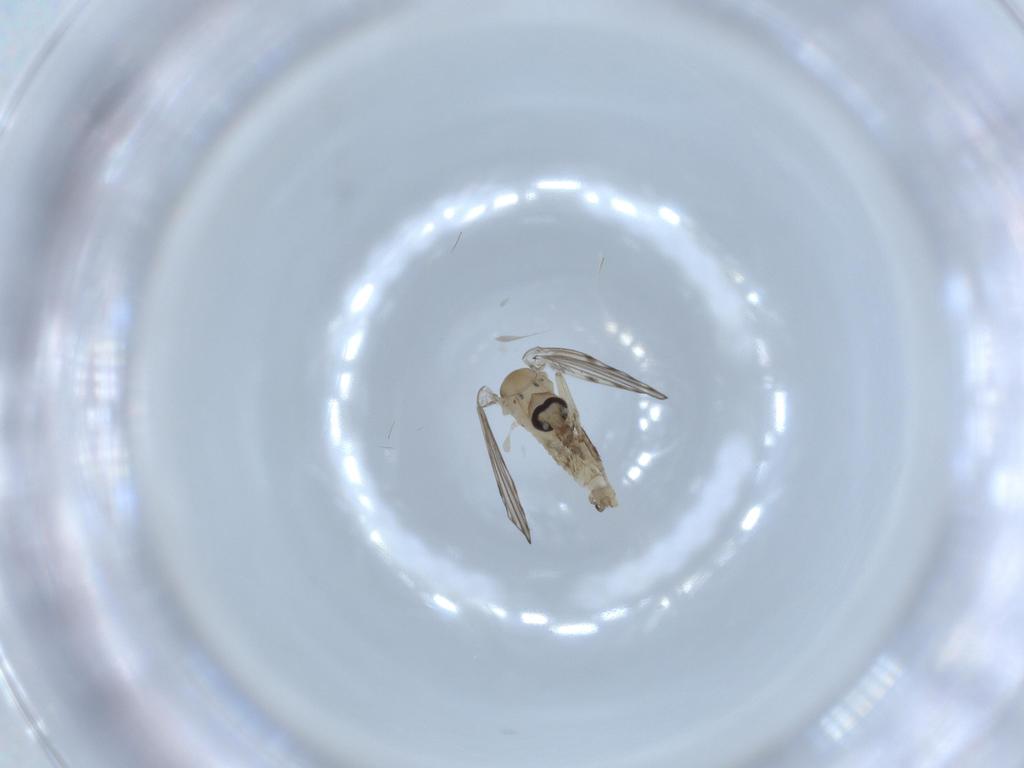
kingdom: Animalia
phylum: Arthropoda
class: Insecta
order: Diptera
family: Psychodidae
